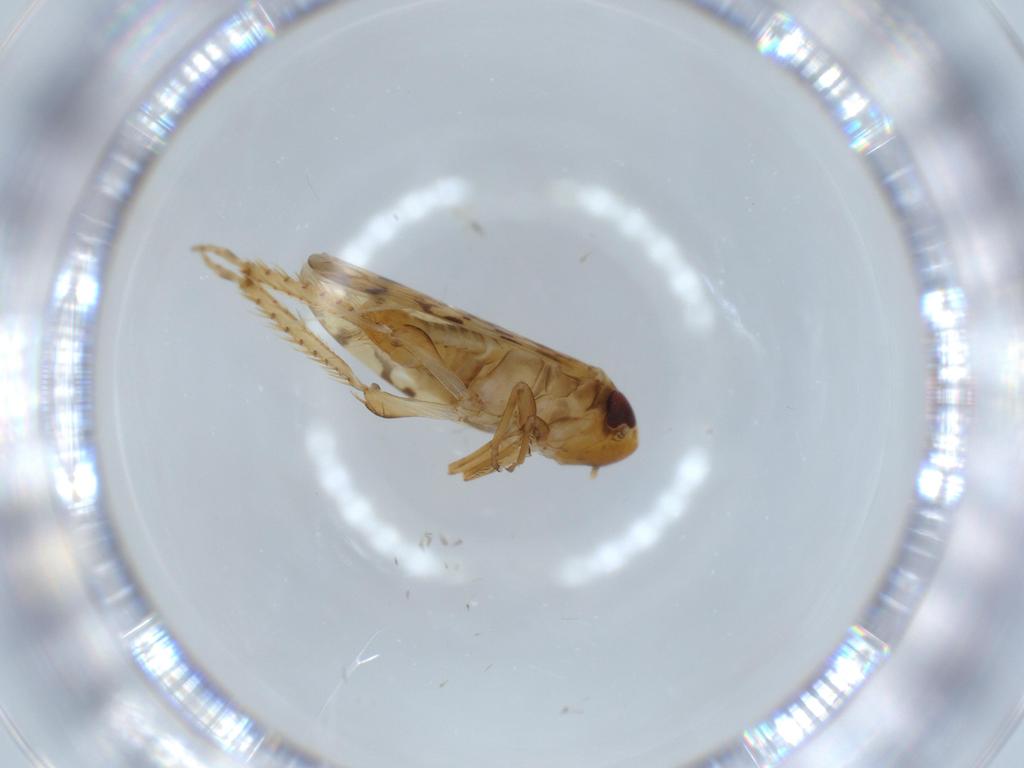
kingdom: Animalia
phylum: Arthropoda
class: Insecta
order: Hemiptera
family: Cicadellidae
